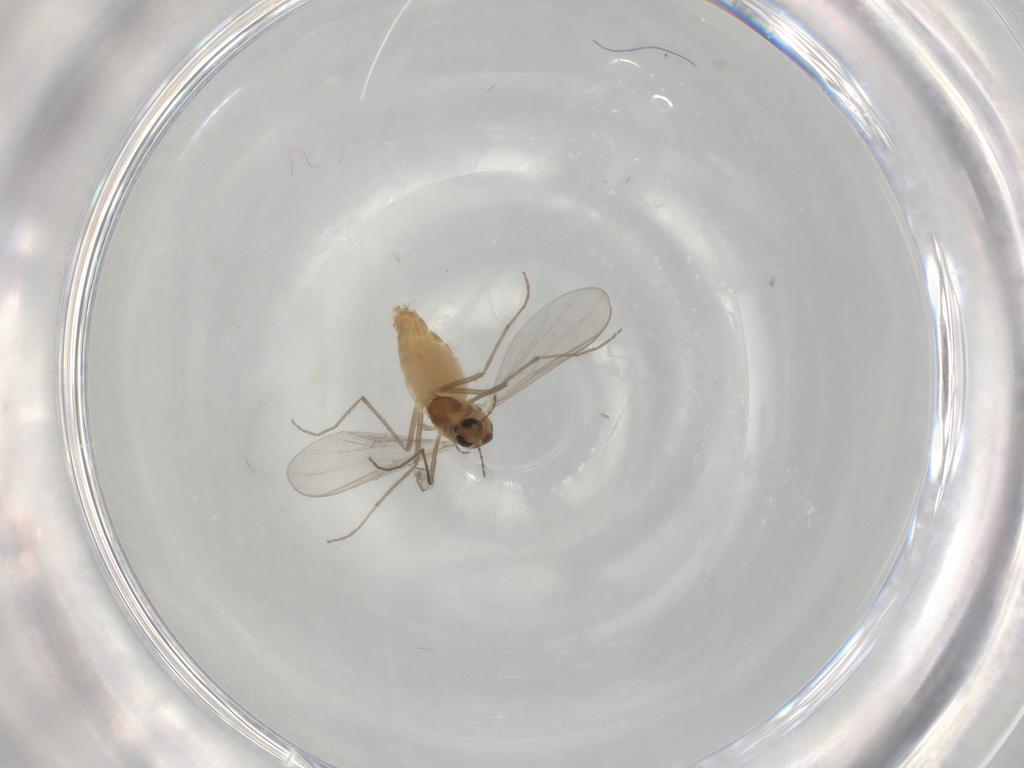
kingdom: Animalia
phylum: Arthropoda
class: Insecta
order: Diptera
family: Chironomidae
